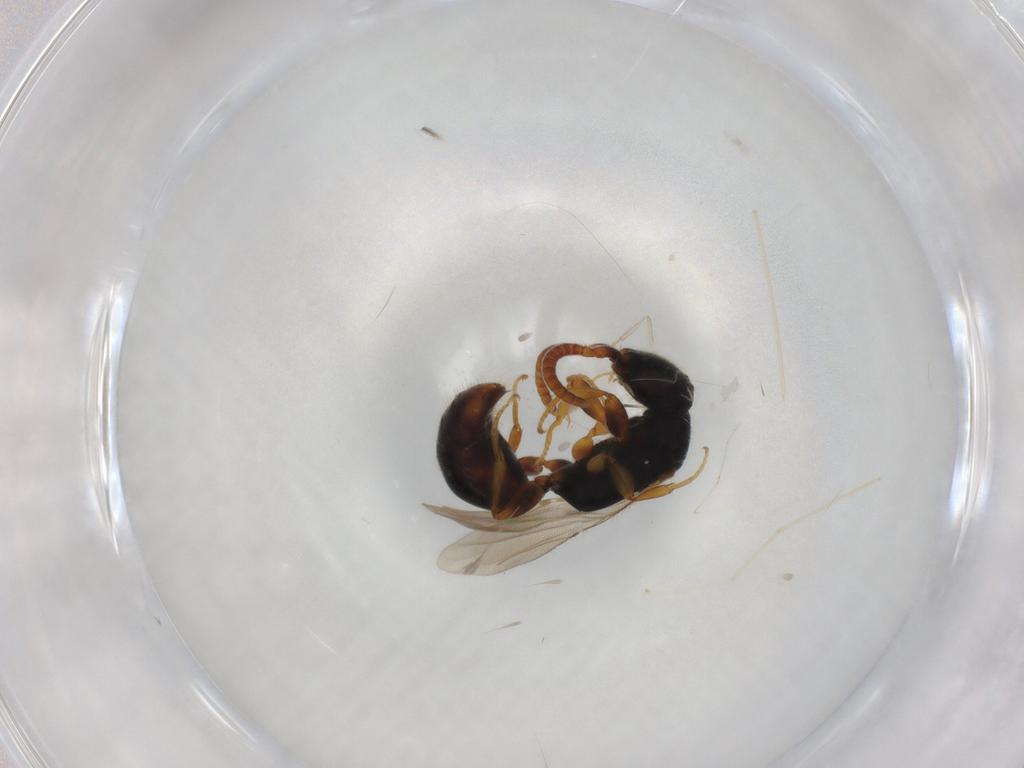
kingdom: Animalia
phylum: Arthropoda
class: Insecta
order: Hymenoptera
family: Bethylidae
